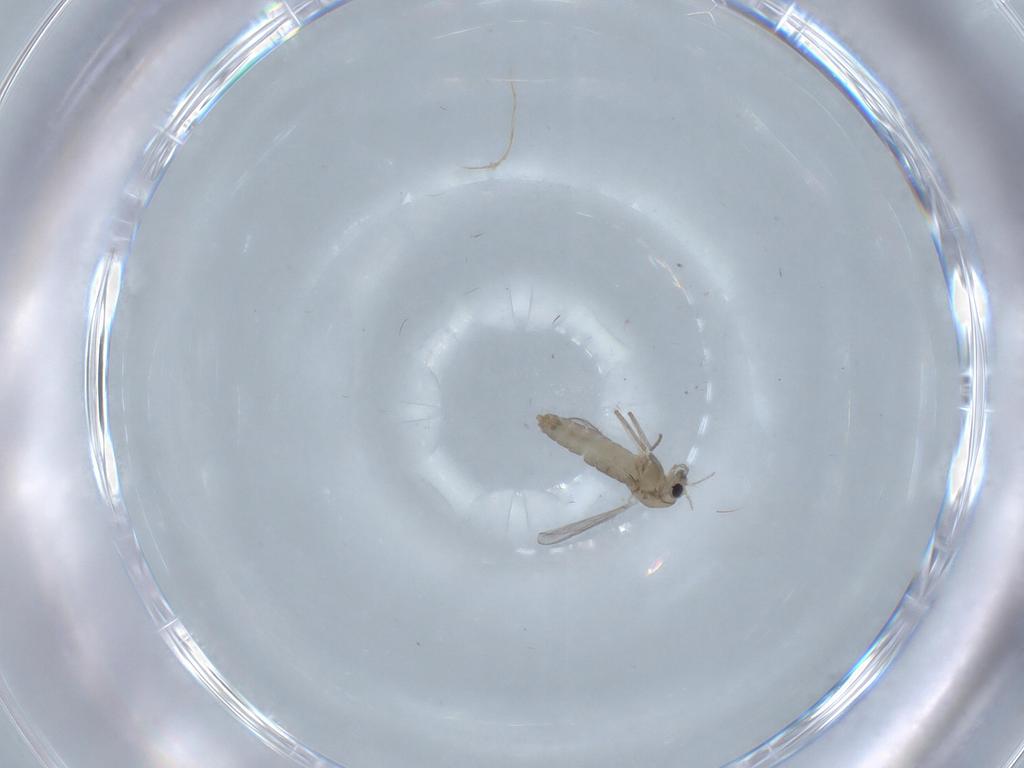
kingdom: Animalia
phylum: Arthropoda
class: Insecta
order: Diptera
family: Chironomidae
